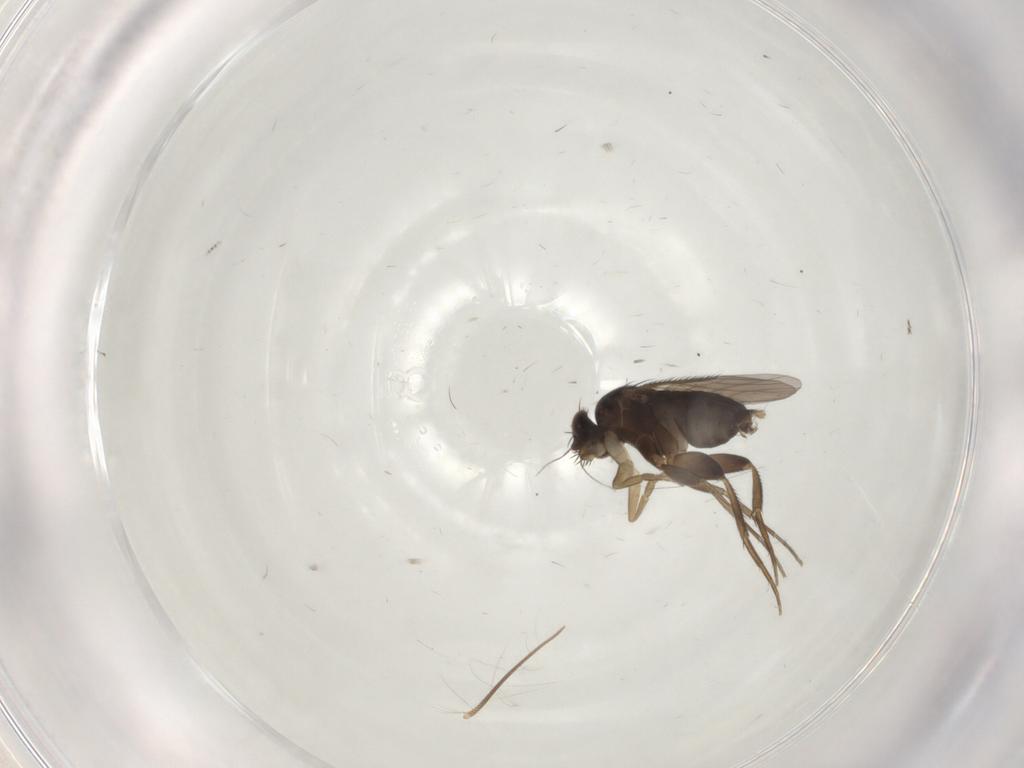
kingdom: Animalia
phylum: Arthropoda
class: Insecta
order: Diptera
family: Phoridae
